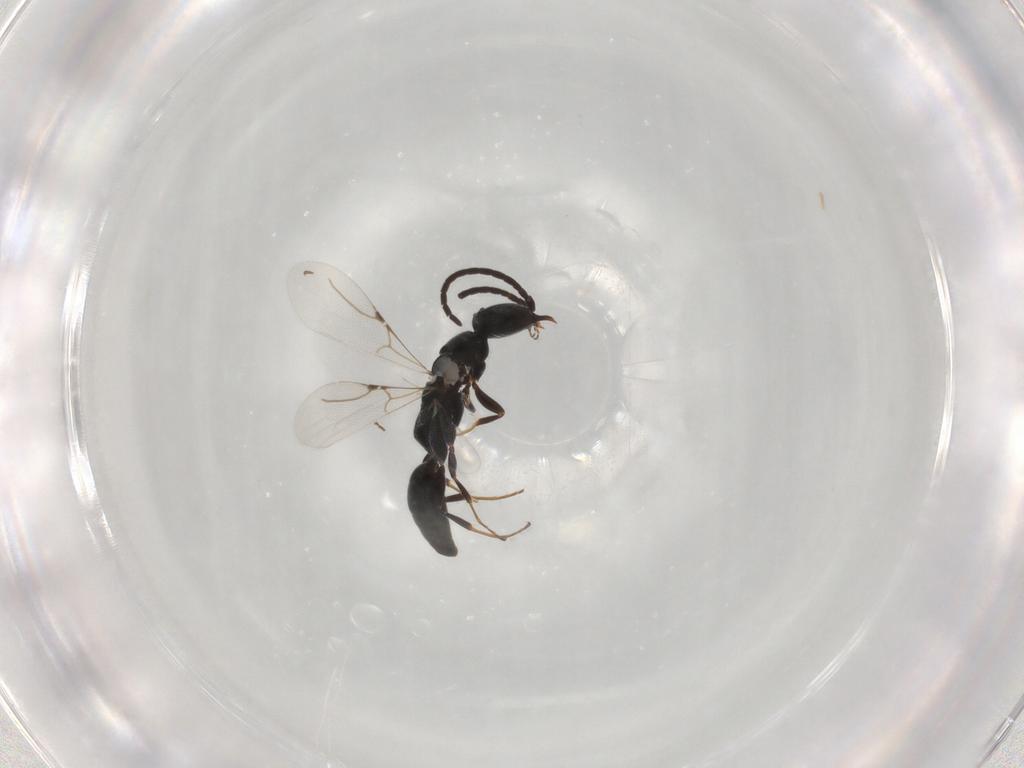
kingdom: Animalia
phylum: Arthropoda
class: Insecta
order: Hymenoptera
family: Bethylidae
